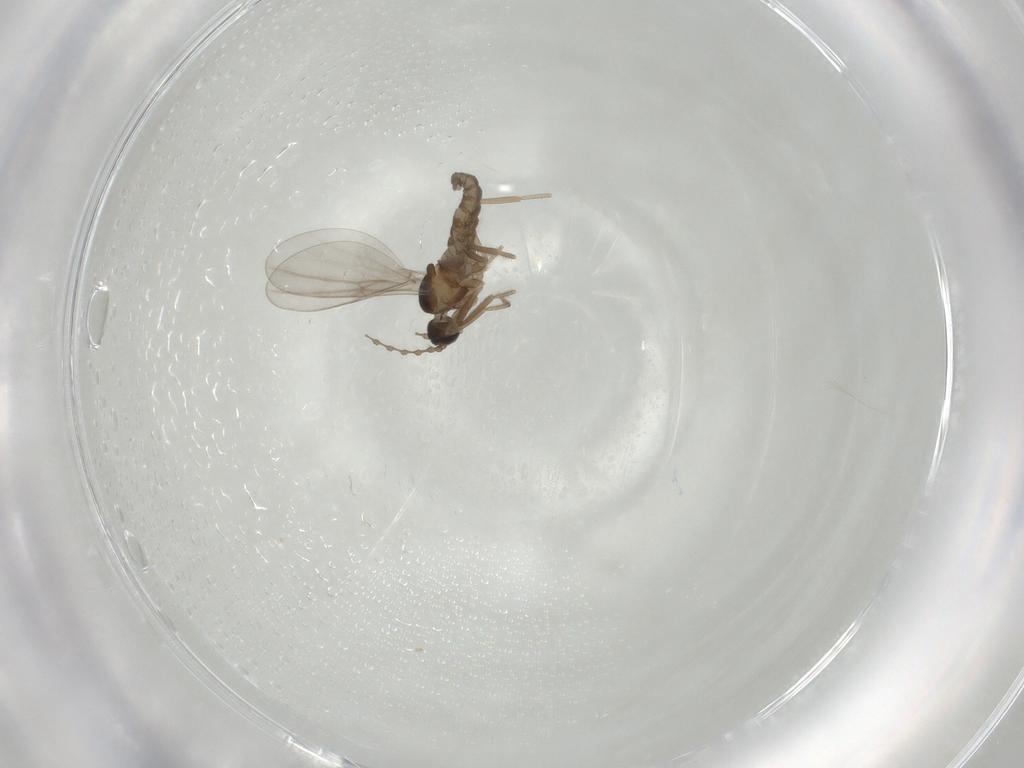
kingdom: Animalia
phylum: Arthropoda
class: Insecta
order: Diptera
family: Cecidomyiidae
